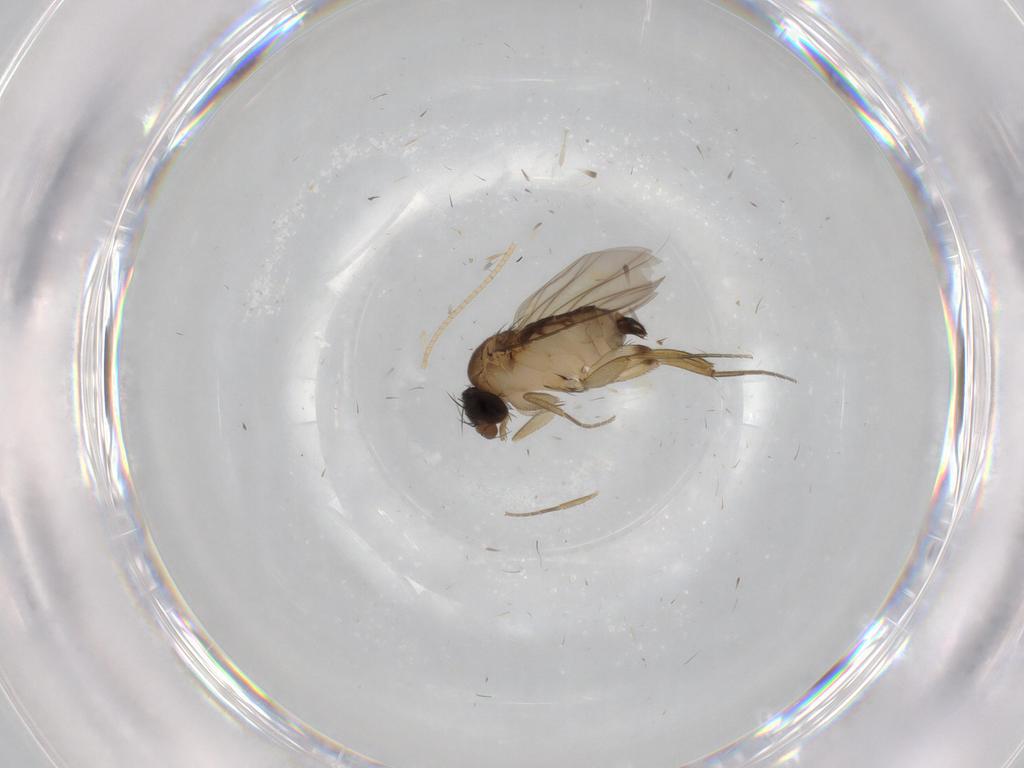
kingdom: Animalia
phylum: Arthropoda
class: Insecta
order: Diptera
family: Phoridae
